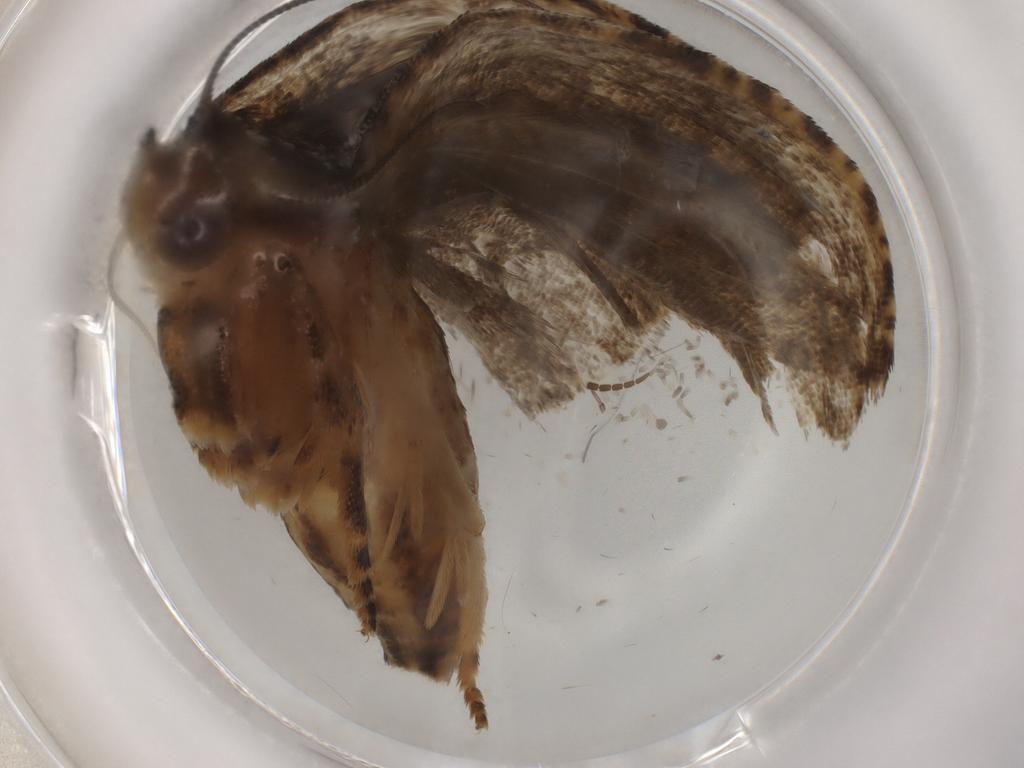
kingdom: Animalia
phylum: Arthropoda
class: Insecta
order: Lepidoptera
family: Tortricidae
